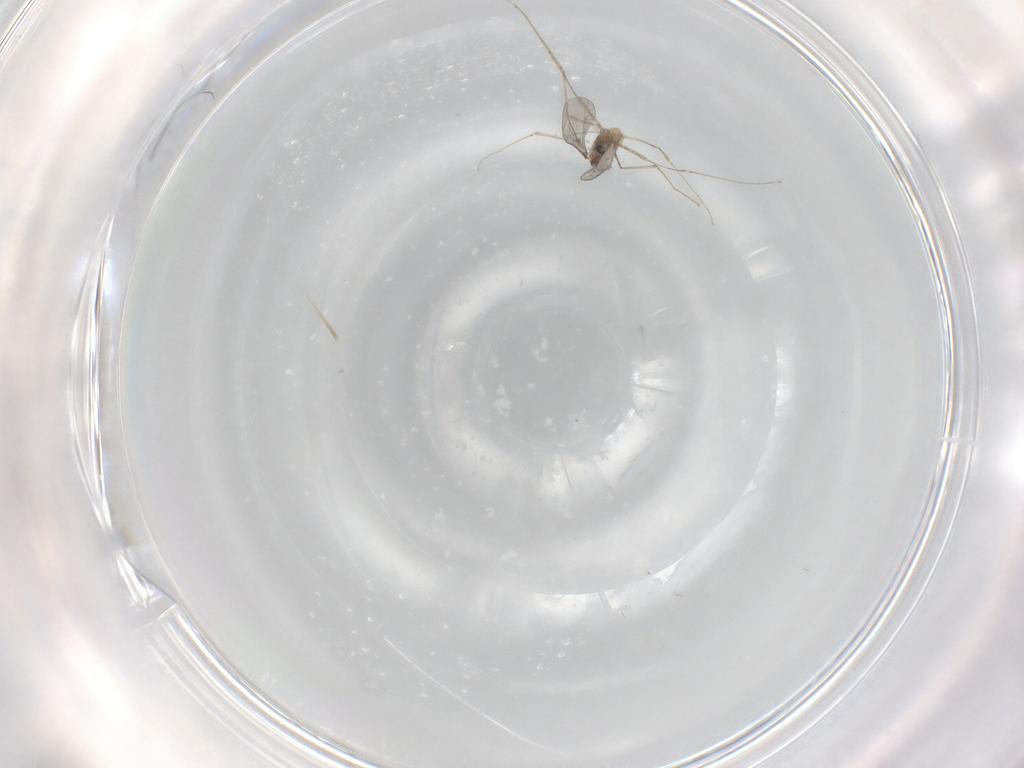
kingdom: Animalia
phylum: Arthropoda
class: Insecta
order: Diptera
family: Cecidomyiidae
